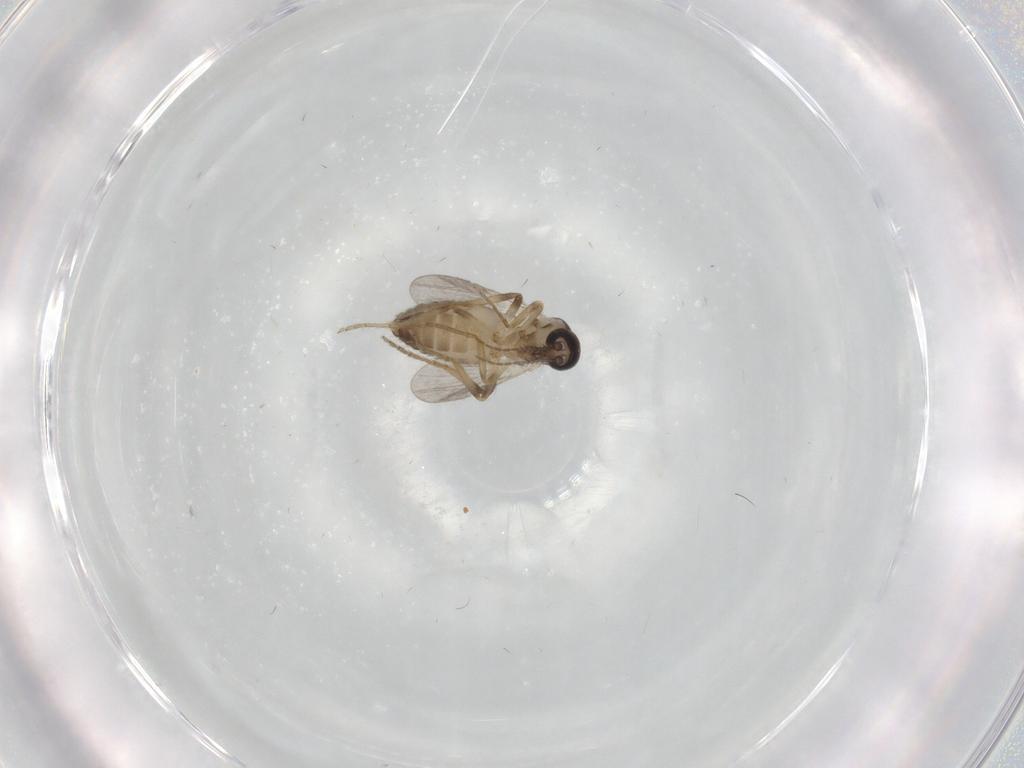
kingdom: Animalia
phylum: Arthropoda
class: Insecta
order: Diptera
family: Ceratopogonidae
